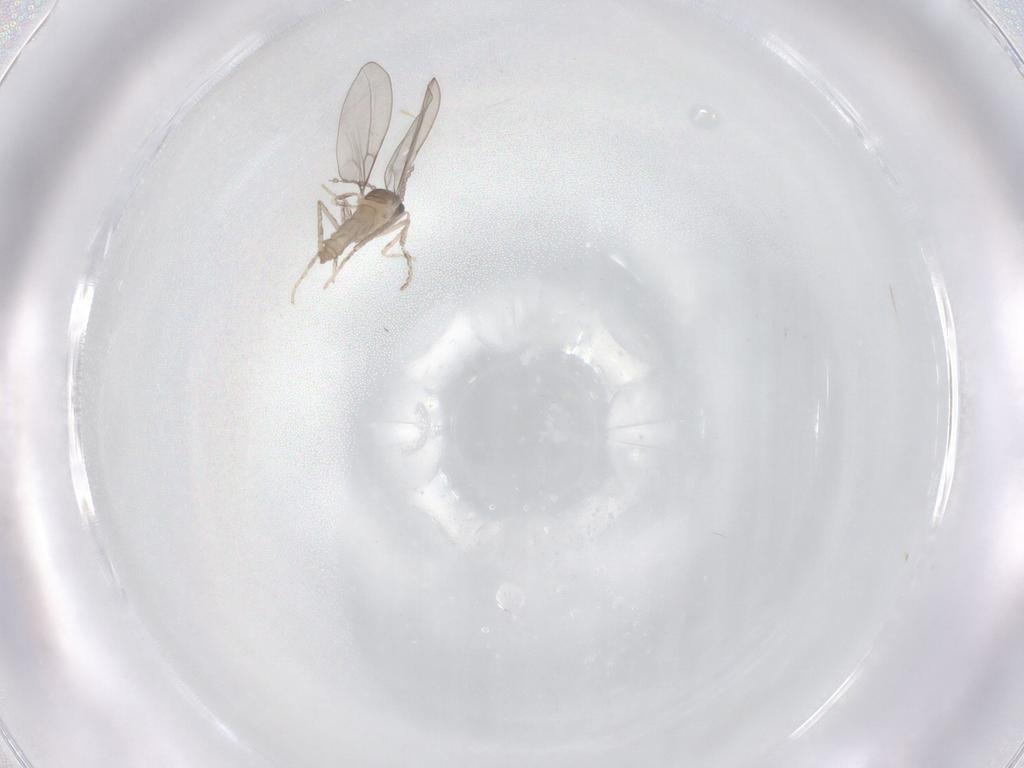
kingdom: Animalia
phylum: Arthropoda
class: Insecta
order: Diptera
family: Cecidomyiidae
